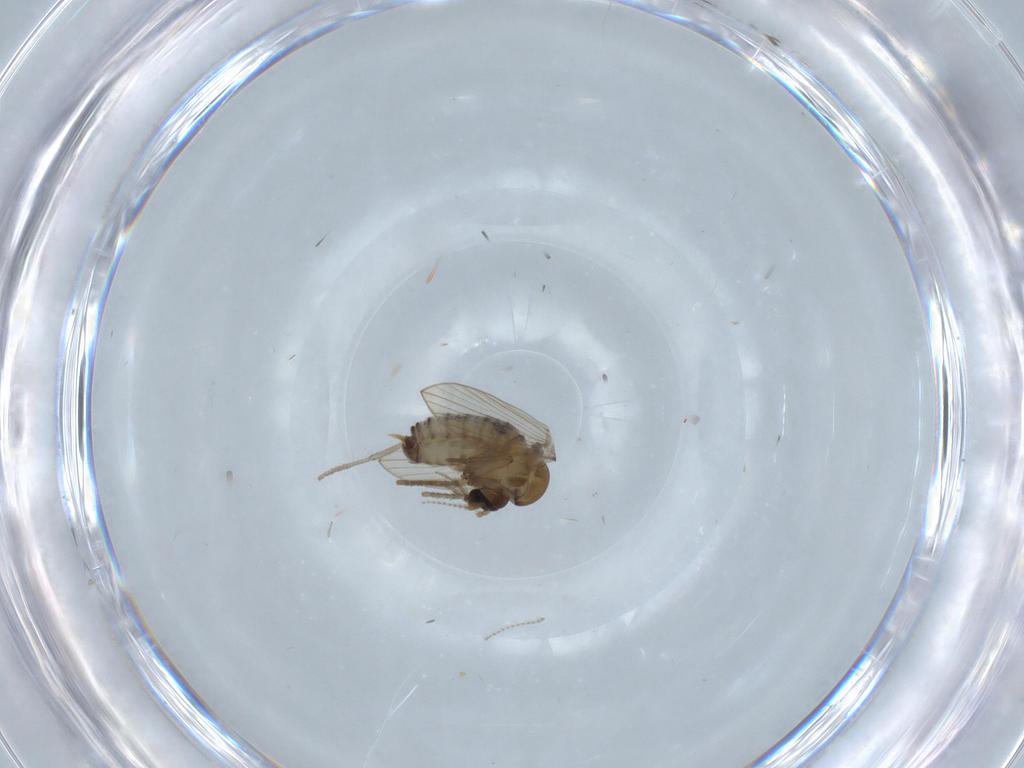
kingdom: Animalia
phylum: Arthropoda
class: Insecta
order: Diptera
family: Psychodidae
